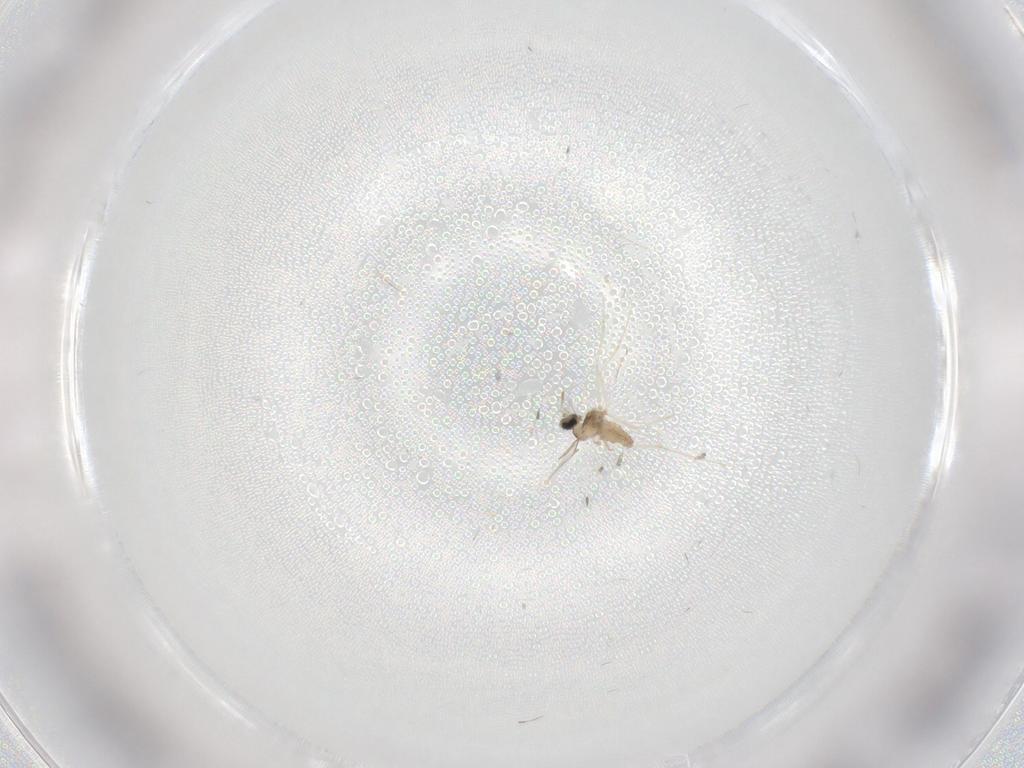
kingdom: Animalia
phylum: Arthropoda
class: Insecta
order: Diptera
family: Cecidomyiidae
